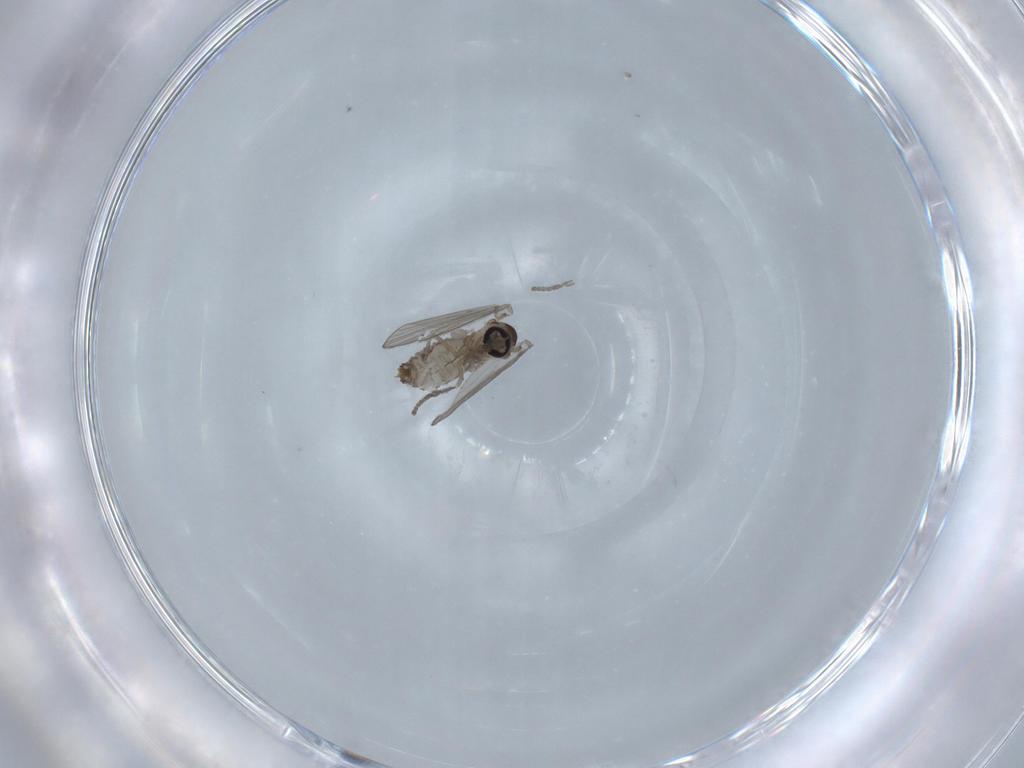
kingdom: Animalia
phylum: Arthropoda
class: Insecta
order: Diptera
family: Psychodidae
